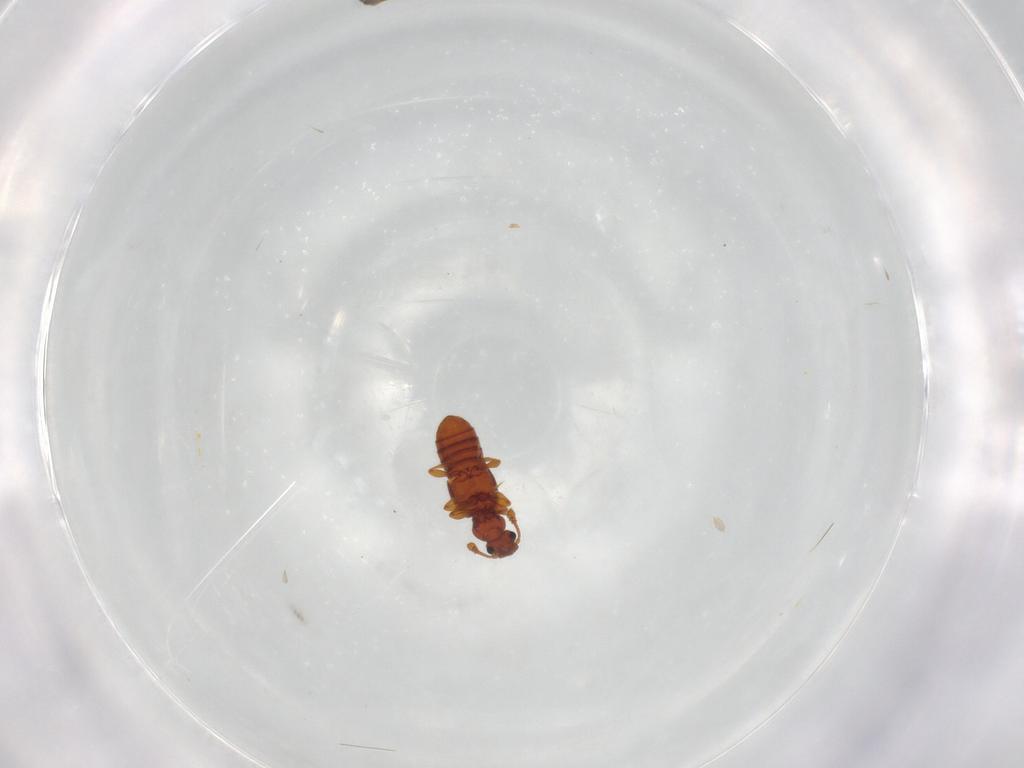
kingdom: Animalia
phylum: Arthropoda
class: Insecta
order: Coleoptera
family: Staphylinidae
